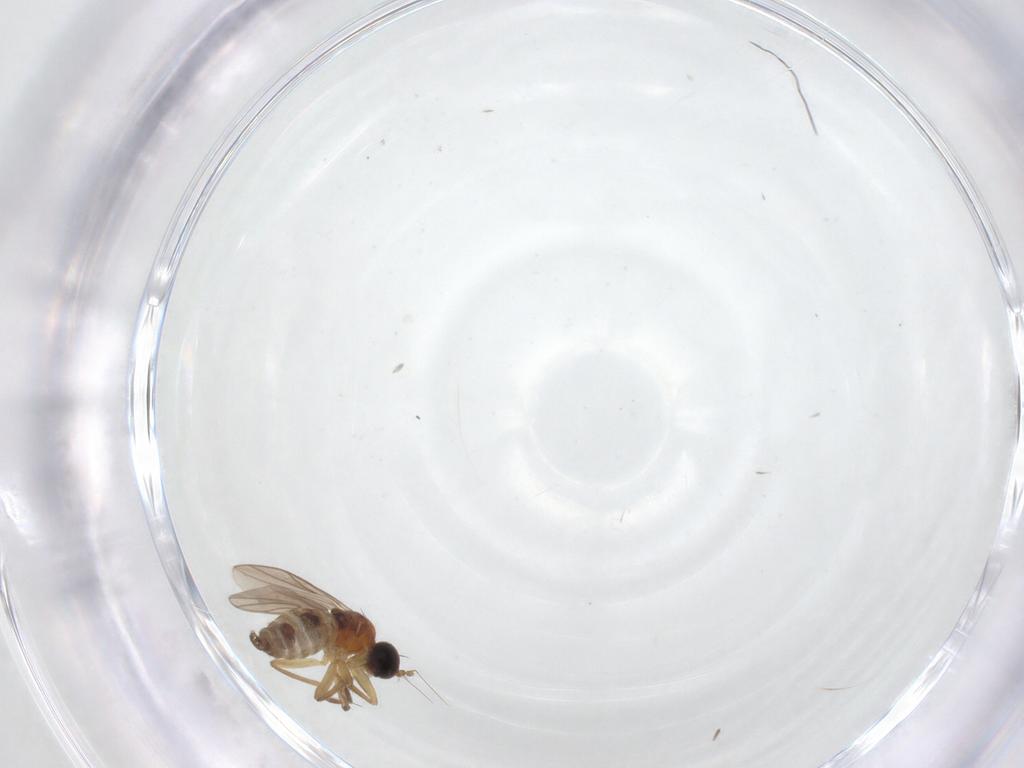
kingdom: Animalia
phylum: Arthropoda
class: Insecta
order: Diptera
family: Hybotidae
